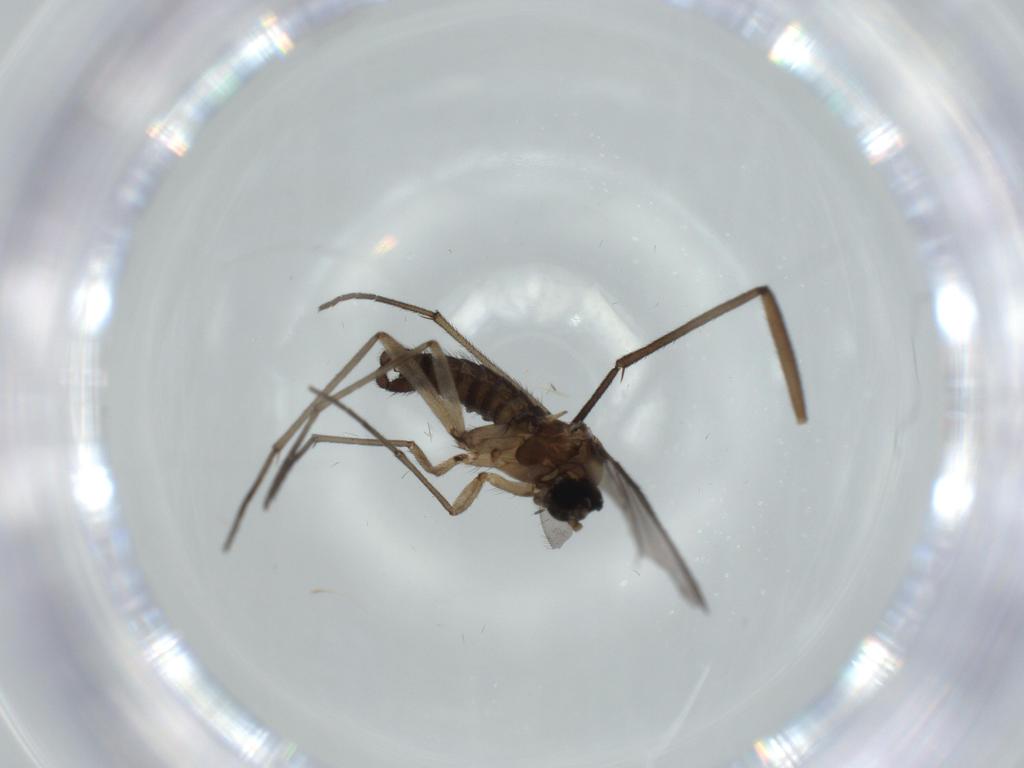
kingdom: Animalia
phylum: Arthropoda
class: Insecta
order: Diptera
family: Sciaridae
